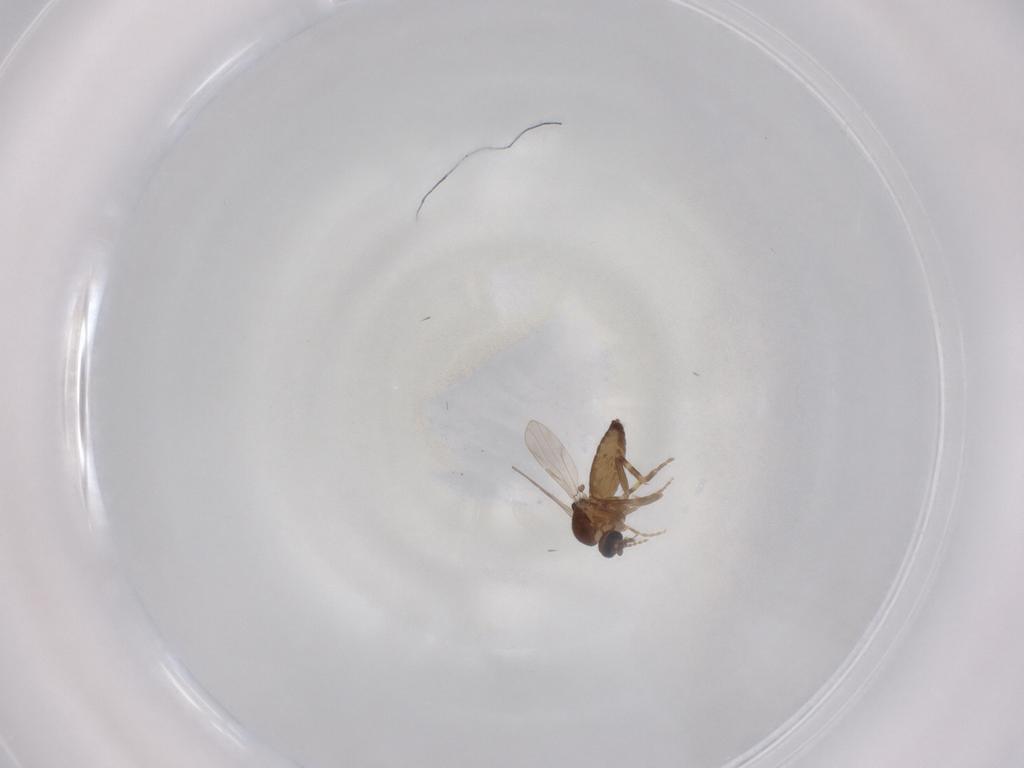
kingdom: Animalia
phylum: Arthropoda
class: Insecta
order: Diptera
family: Ceratopogonidae
